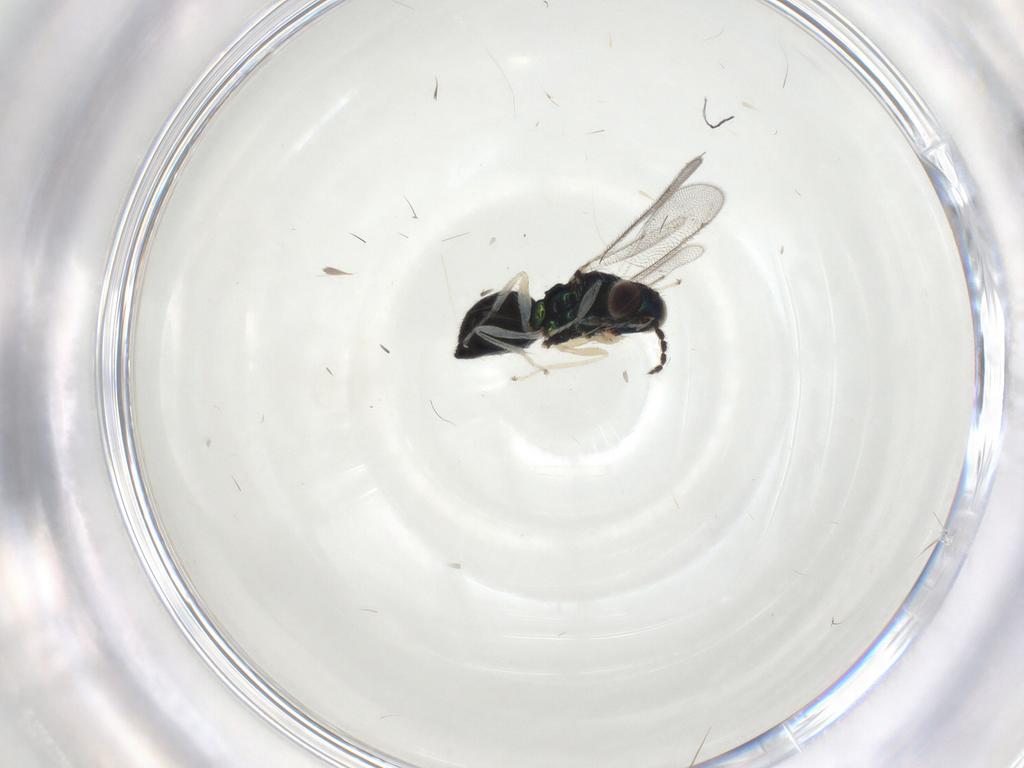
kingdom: Animalia
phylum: Arthropoda
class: Insecta
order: Hymenoptera
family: Eulophidae
